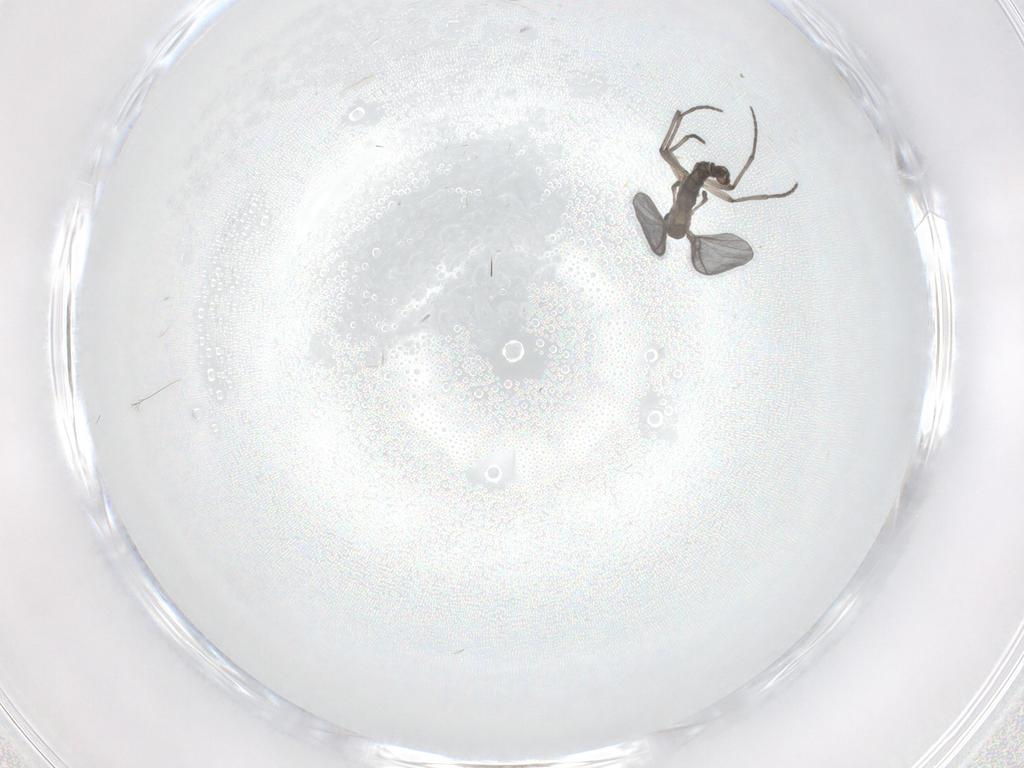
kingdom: Animalia
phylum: Arthropoda
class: Insecta
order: Diptera
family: Sciaridae
